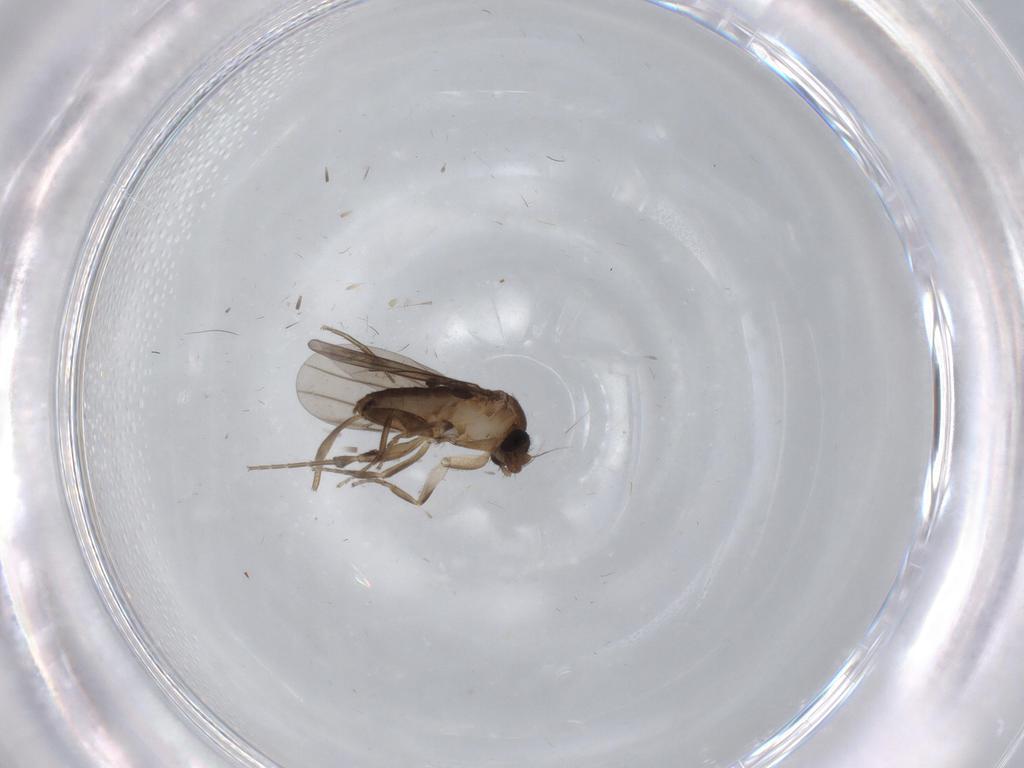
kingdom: Animalia
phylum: Arthropoda
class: Insecta
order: Diptera
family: Phoridae
